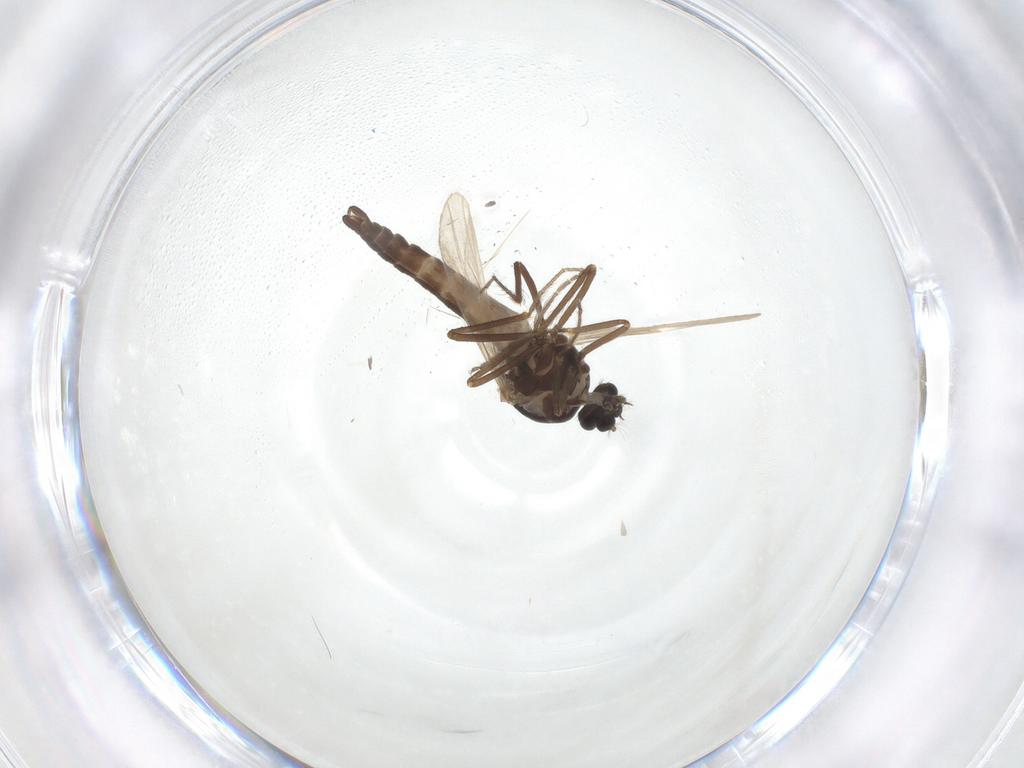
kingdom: Animalia
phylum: Arthropoda
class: Insecta
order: Diptera
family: Ceratopogonidae
